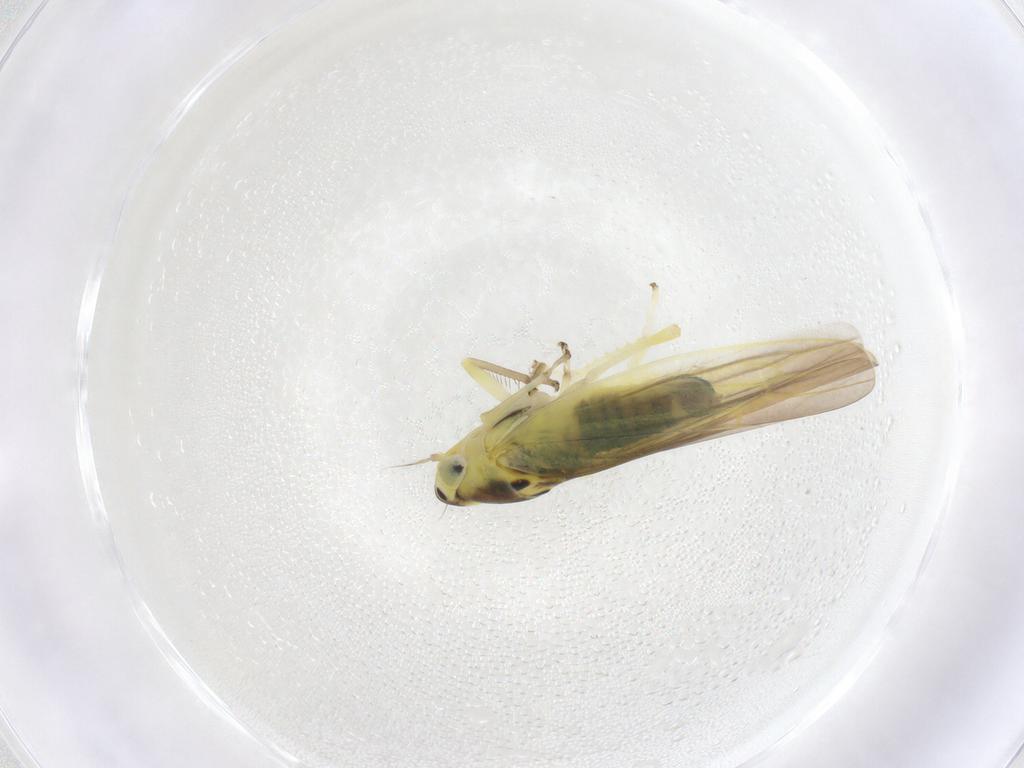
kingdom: Animalia
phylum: Arthropoda
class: Insecta
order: Hemiptera
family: Cicadellidae
